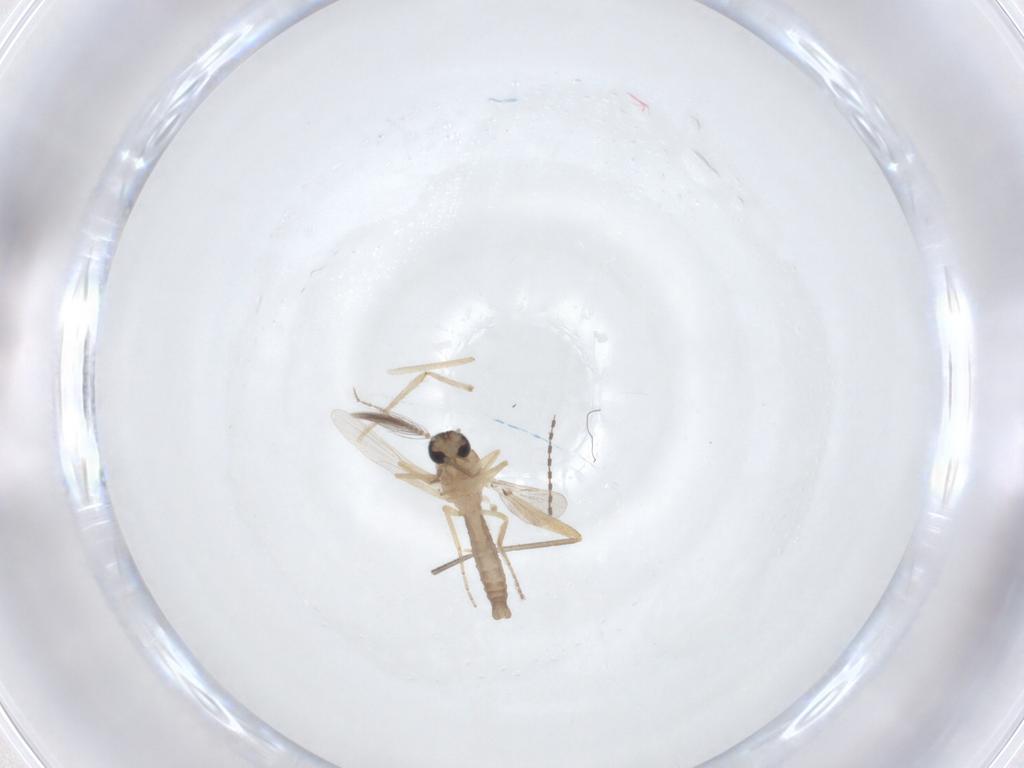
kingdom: Animalia
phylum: Arthropoda
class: Insecta
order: Diptera
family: Ceratopogonidae
